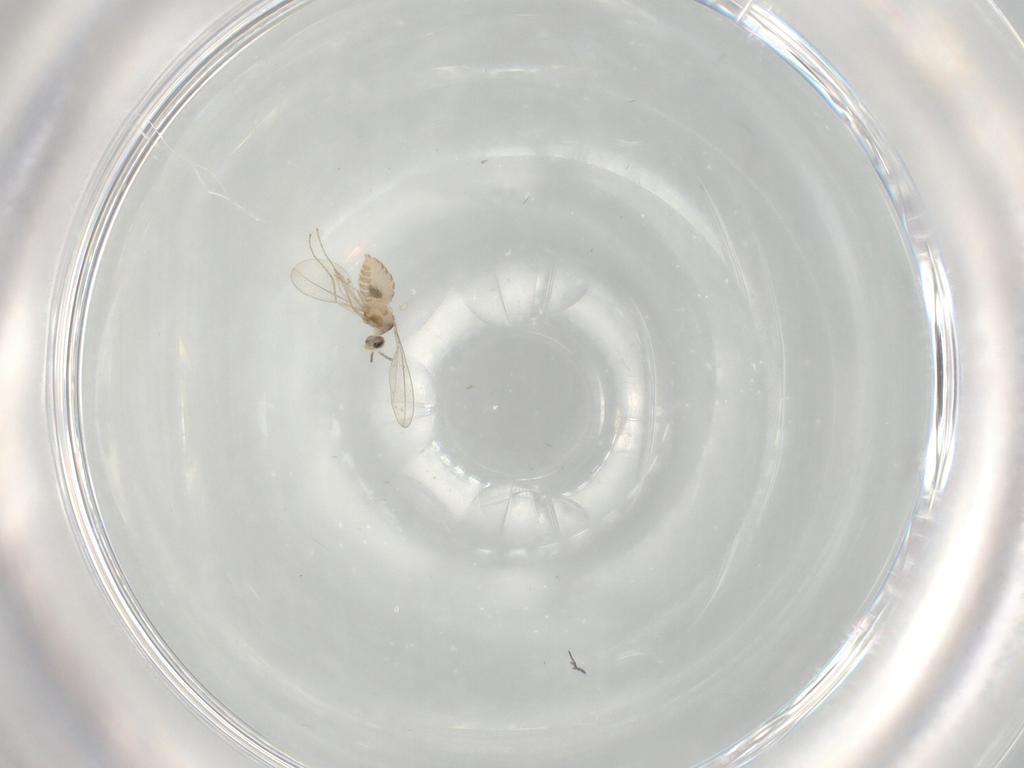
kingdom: Animalia
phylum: Arthropoda
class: Insecta
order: Diptera
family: Cecidomyiidae
